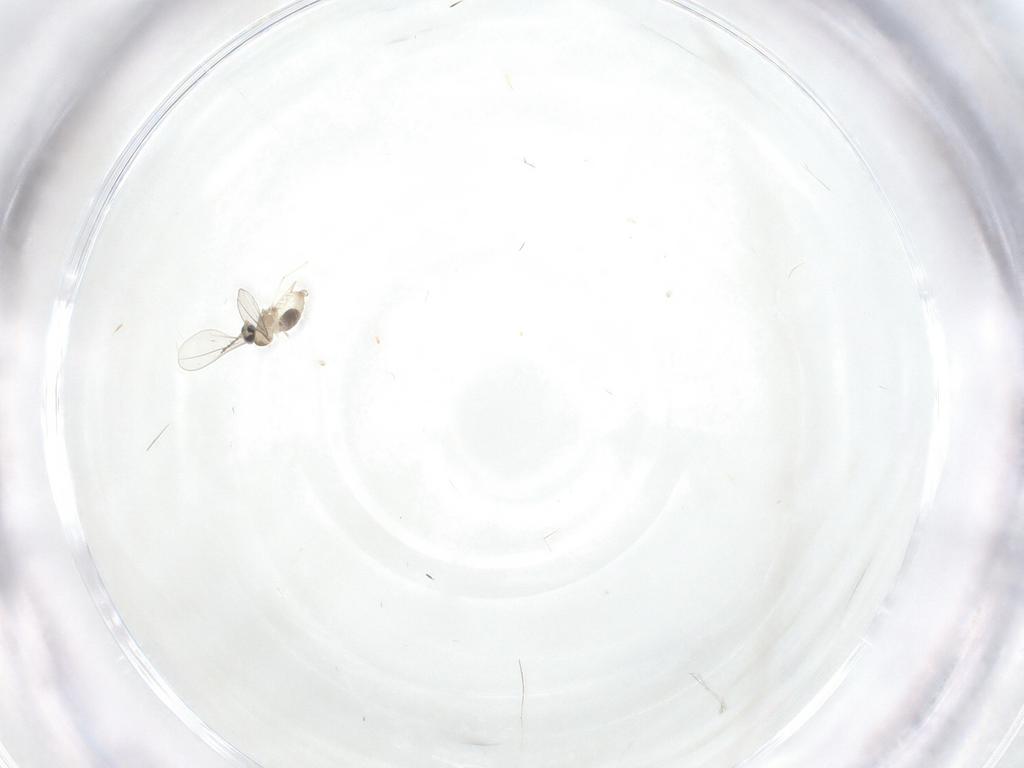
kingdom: Animalia
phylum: Arthropoda
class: Insecta
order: Diptera
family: Cecidomyiidae
